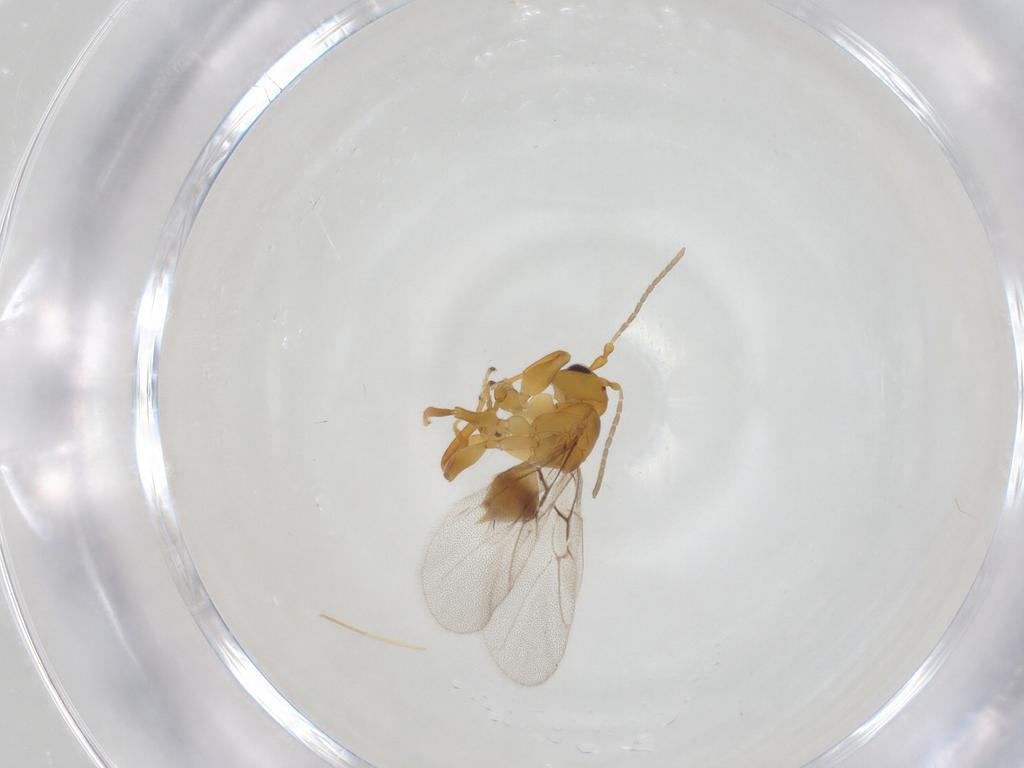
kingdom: Animalia
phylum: Arthropoda
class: Insecta
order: Hymenoptera
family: Cynipidae
